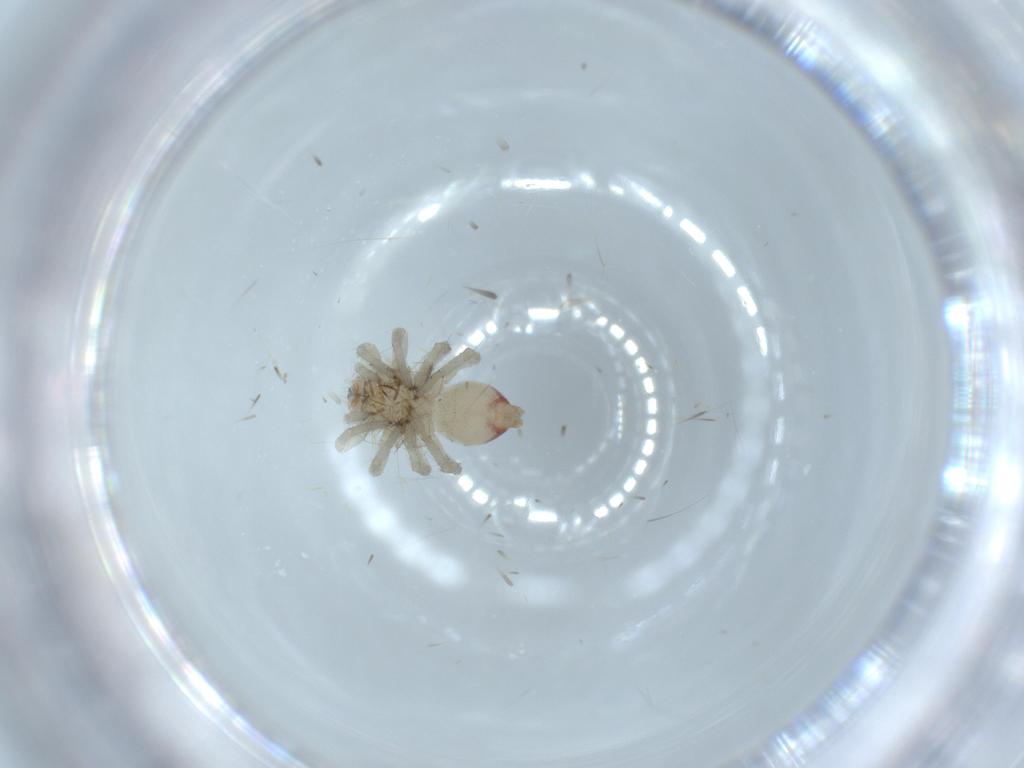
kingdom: Animalia
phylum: Arthropoda
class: Arachnida
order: Araneae
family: Clubionidae
